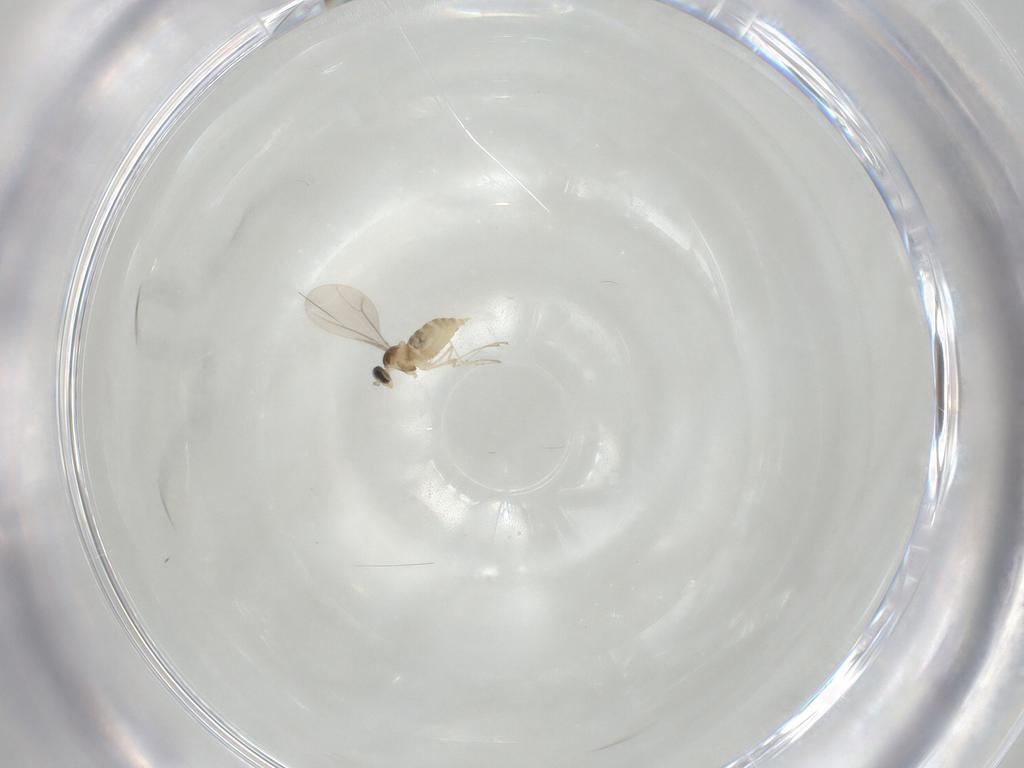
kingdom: Animalia
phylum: Arthropoda
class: Insecta
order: Diptera
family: Cecidomyiidae
